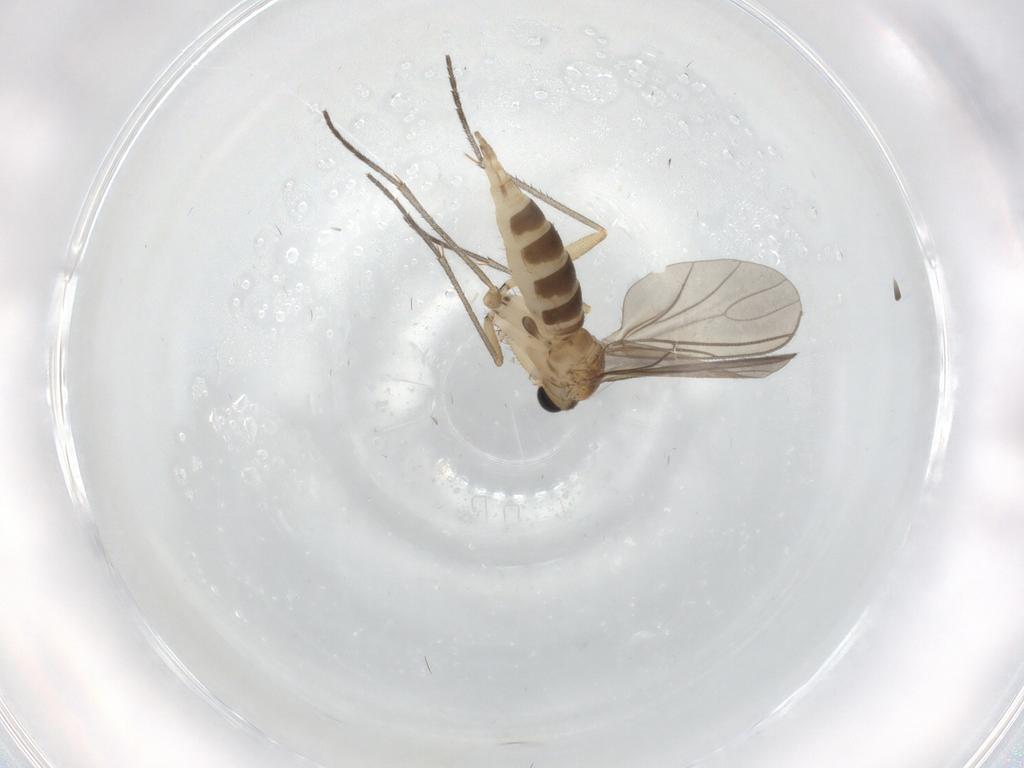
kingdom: Animalia
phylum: Arthropoda
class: Insecta
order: Diptera
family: Sciaridae
